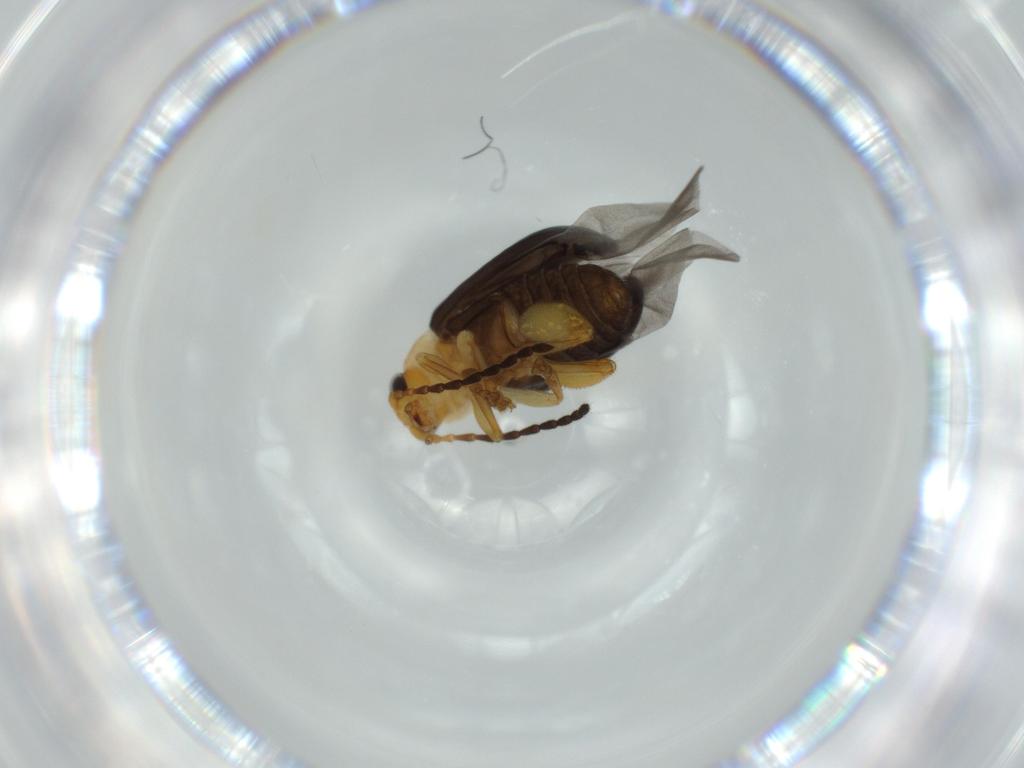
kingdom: Animalia
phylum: Arthropoda
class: Insecta
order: Coleoptera
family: Chrysomelidae
